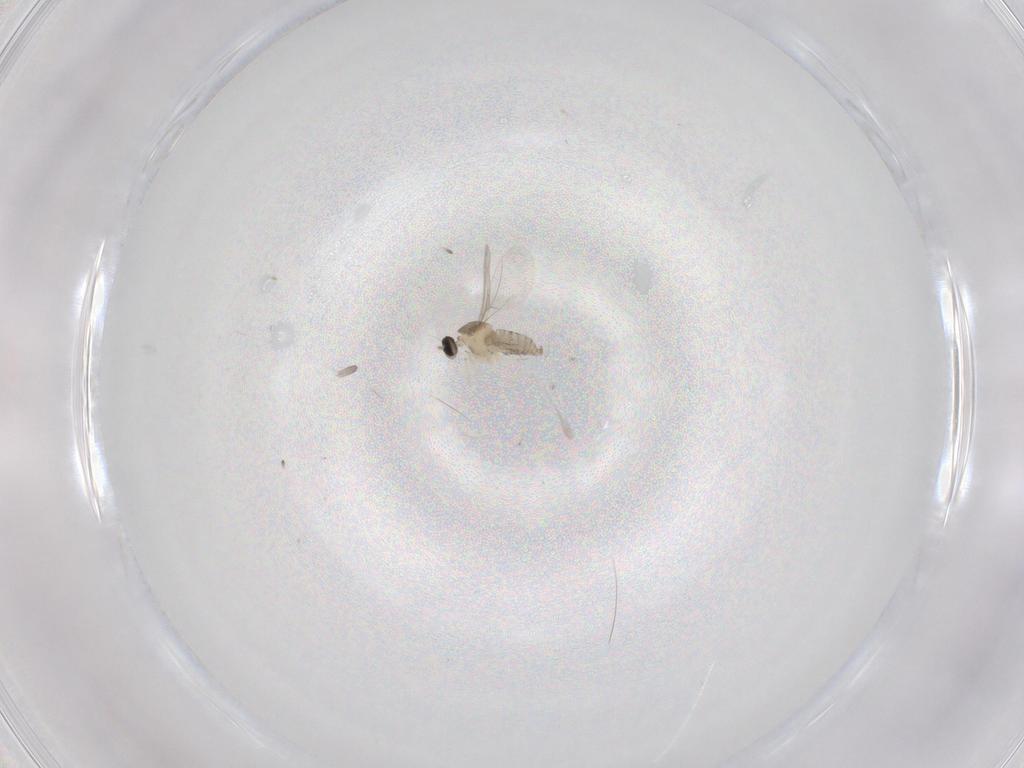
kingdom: Animalia
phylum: Arthropoda
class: Insecta
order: Diptera
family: Cecidomyiidae
